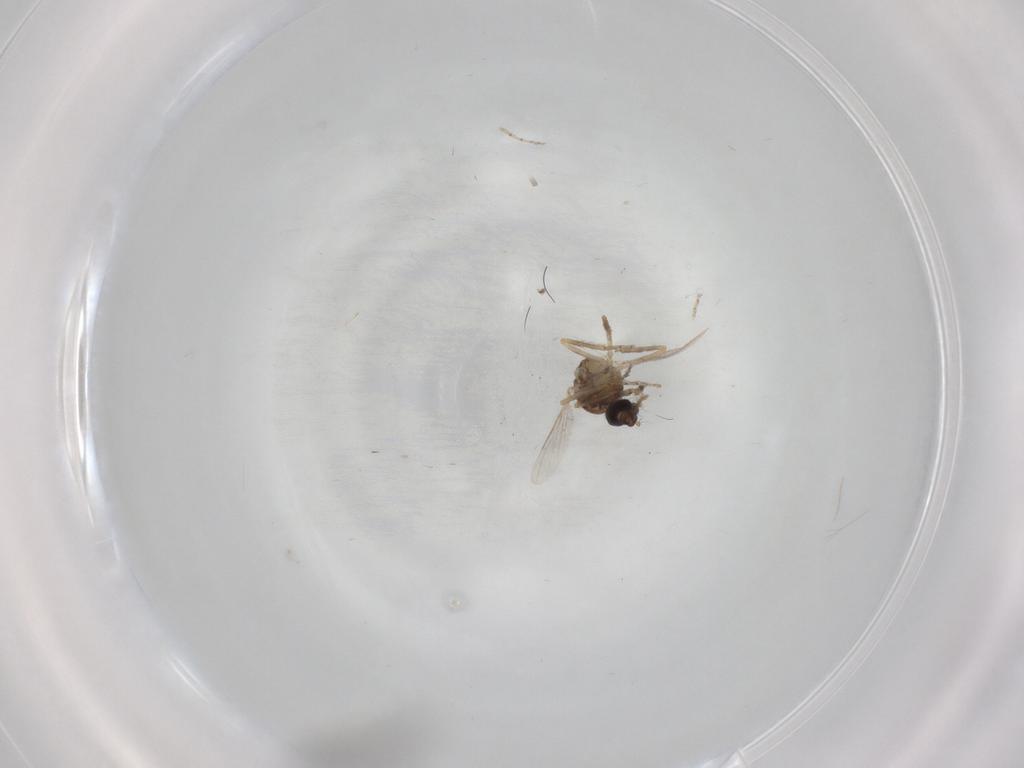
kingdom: Animalia
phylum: Arthropoda
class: Insecta
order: Diptera
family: Ceratopogonidae
